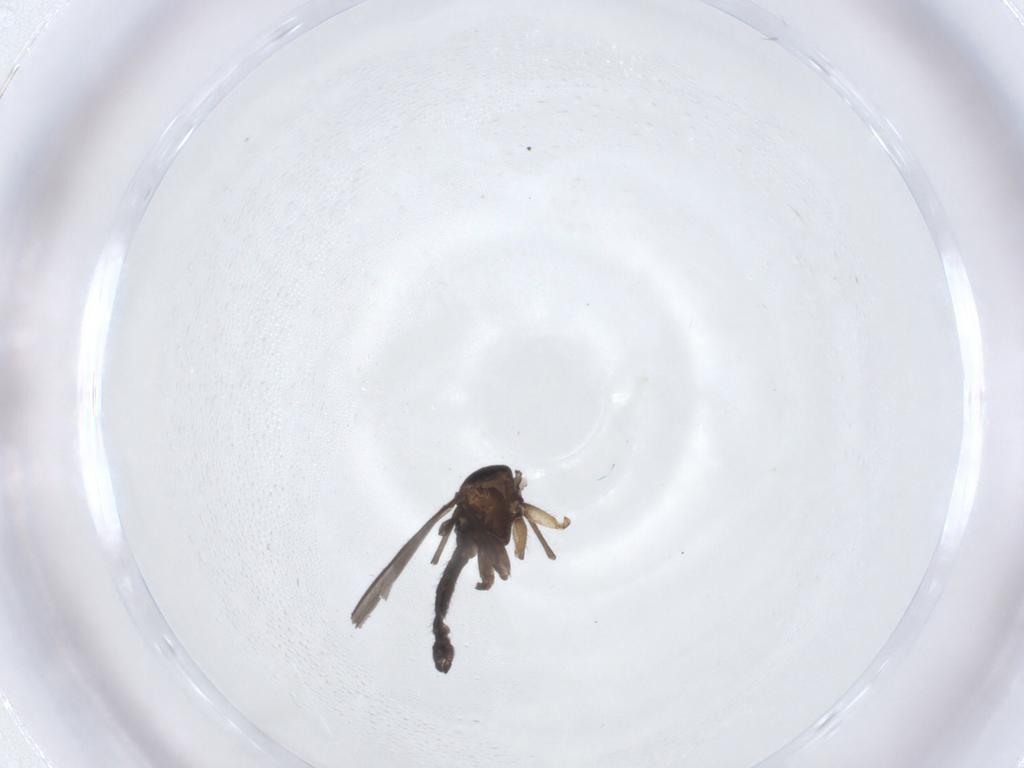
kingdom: Animalia
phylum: Arthropoda
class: Insecta
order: Diptera
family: Sciaridae
